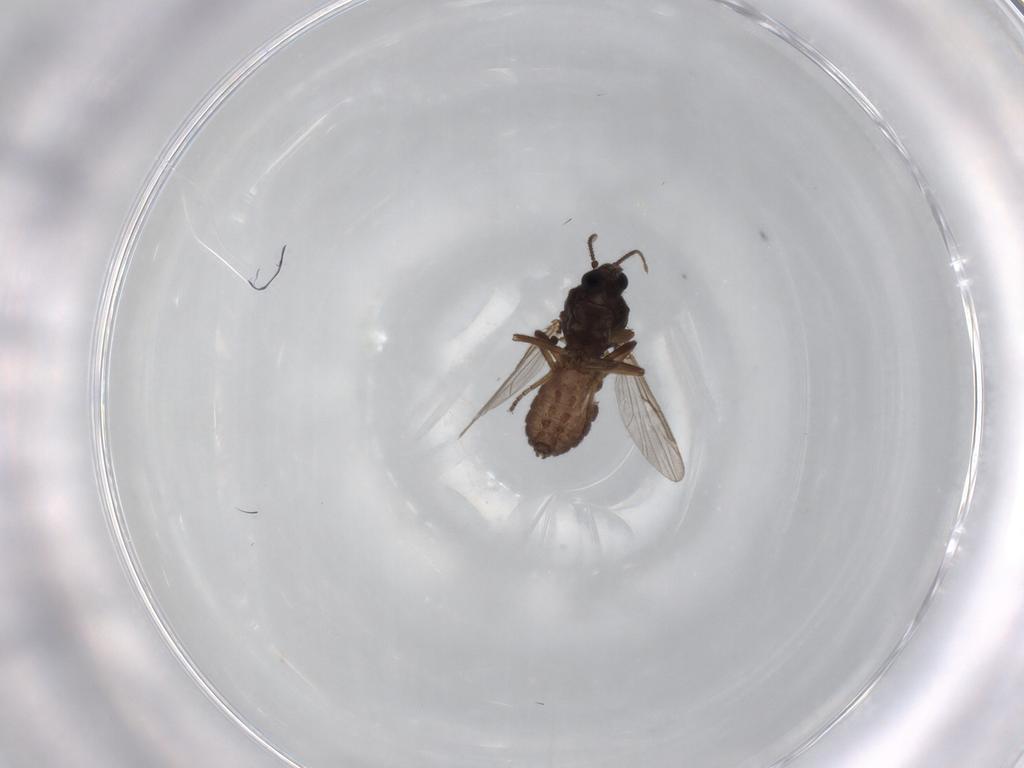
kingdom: Animalia
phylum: Arthropoda
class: Insecta
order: Diptera
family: Ceratopogonidae
